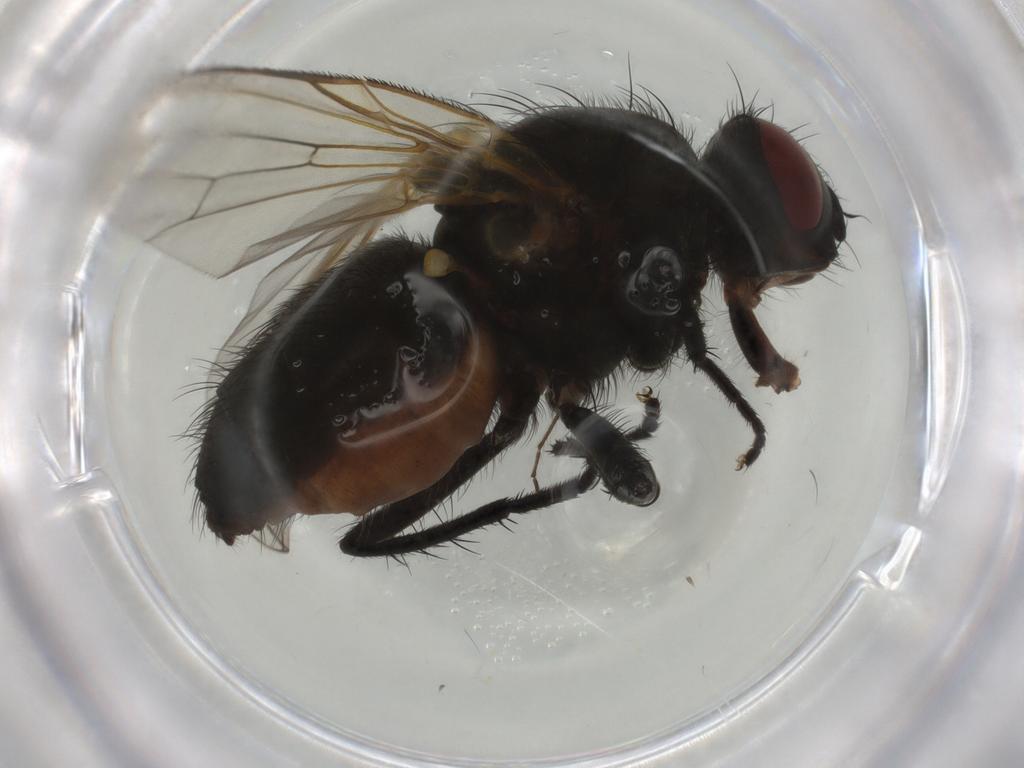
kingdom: Animalia
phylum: Arthropoda
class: Insecta
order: Diptera
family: Anthomyiidae
